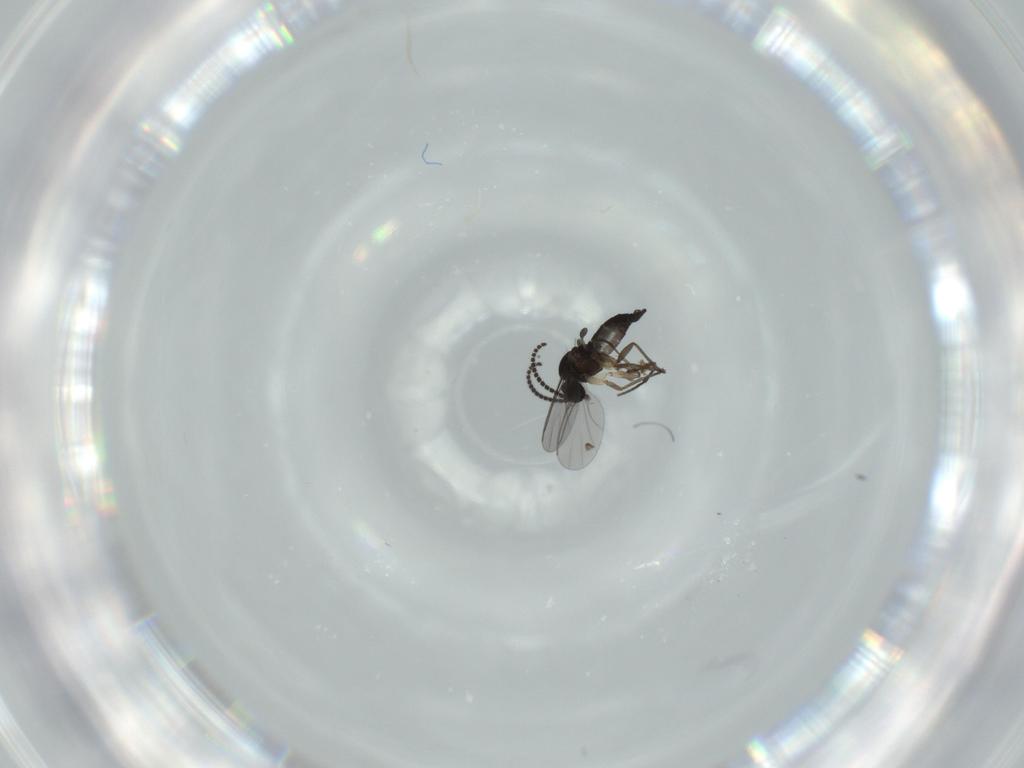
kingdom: Animalia
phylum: Arthropoda
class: Insecta
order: Diptera
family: Sciaridae
